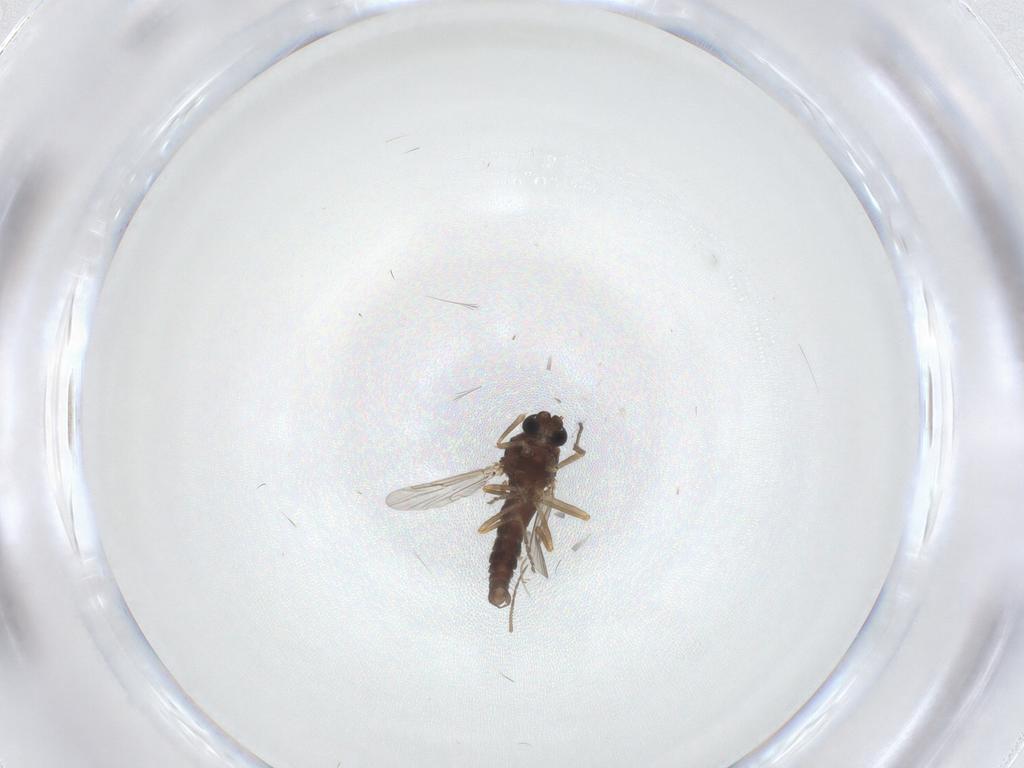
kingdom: Animalia
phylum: Arthropoda
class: Insecta
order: Diptera
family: Ceratopogonidae
